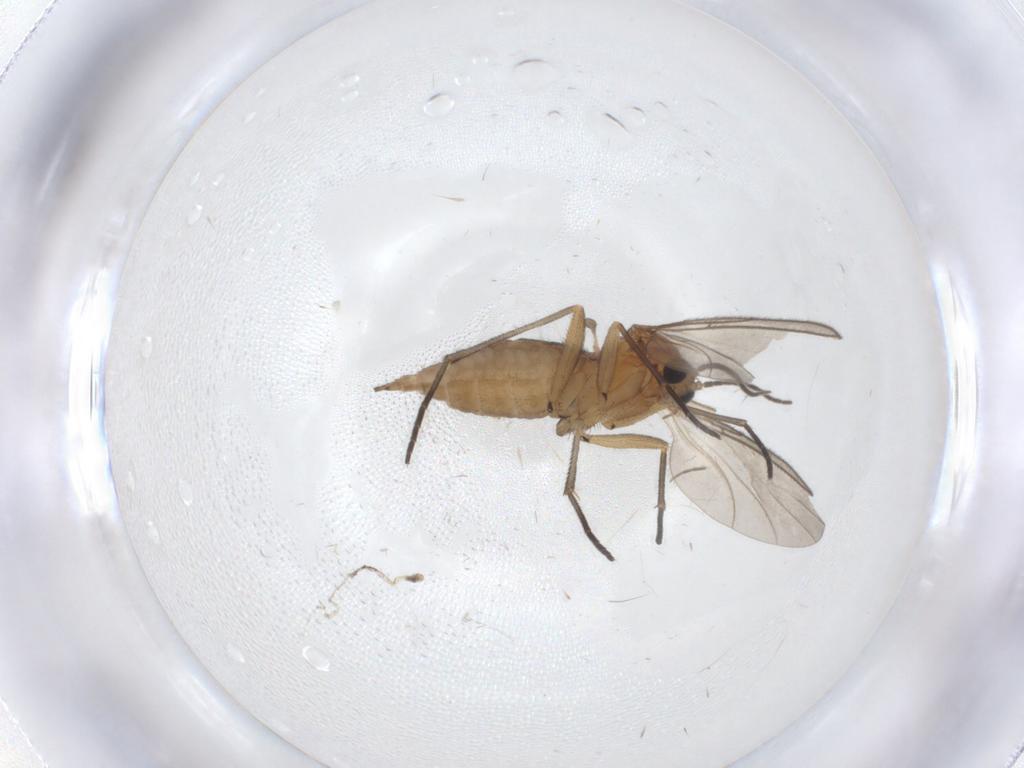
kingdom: Animalia
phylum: Arthropoda
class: Insecta
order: Diptera
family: Sciaridae
